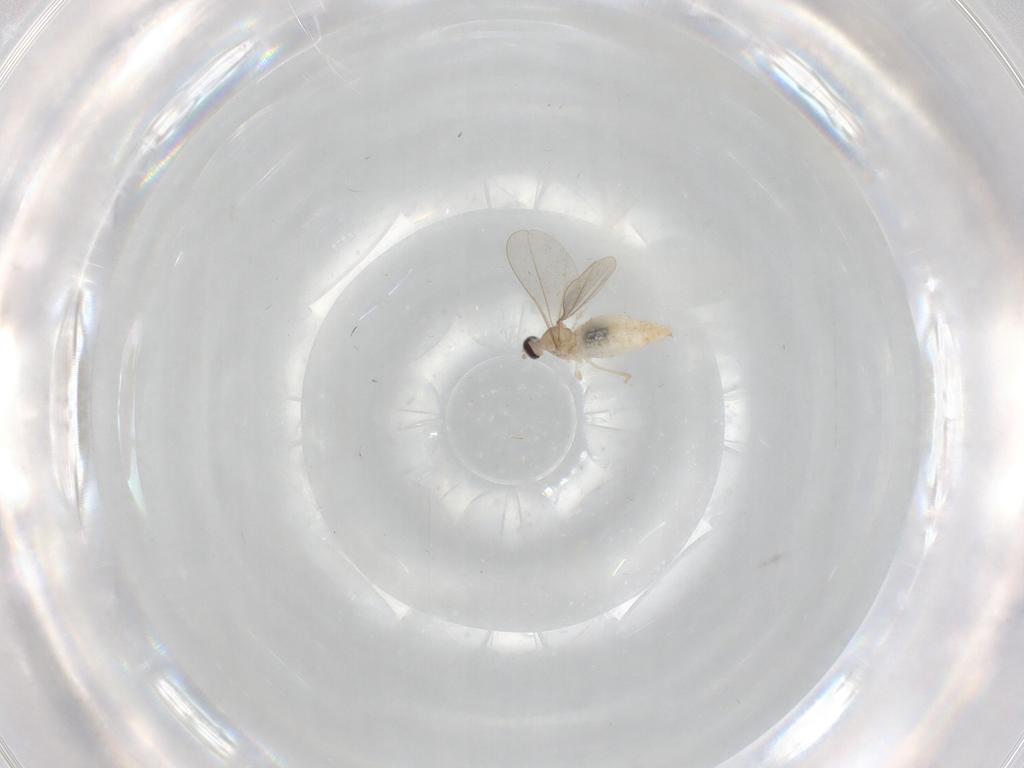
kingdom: Animalia
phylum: Arthropoda
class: Insecta
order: Diptera
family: Cecidomyiidae
